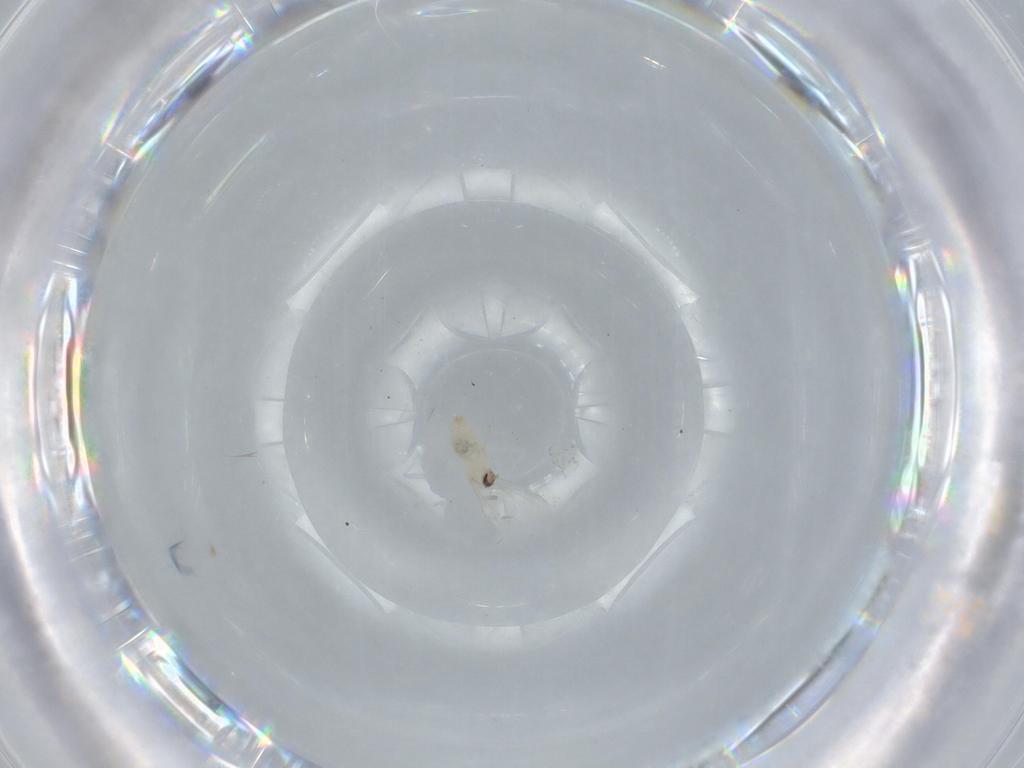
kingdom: Animalia
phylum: Arthropoda
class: Insecta
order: Diptera
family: Cecidomyiidae
